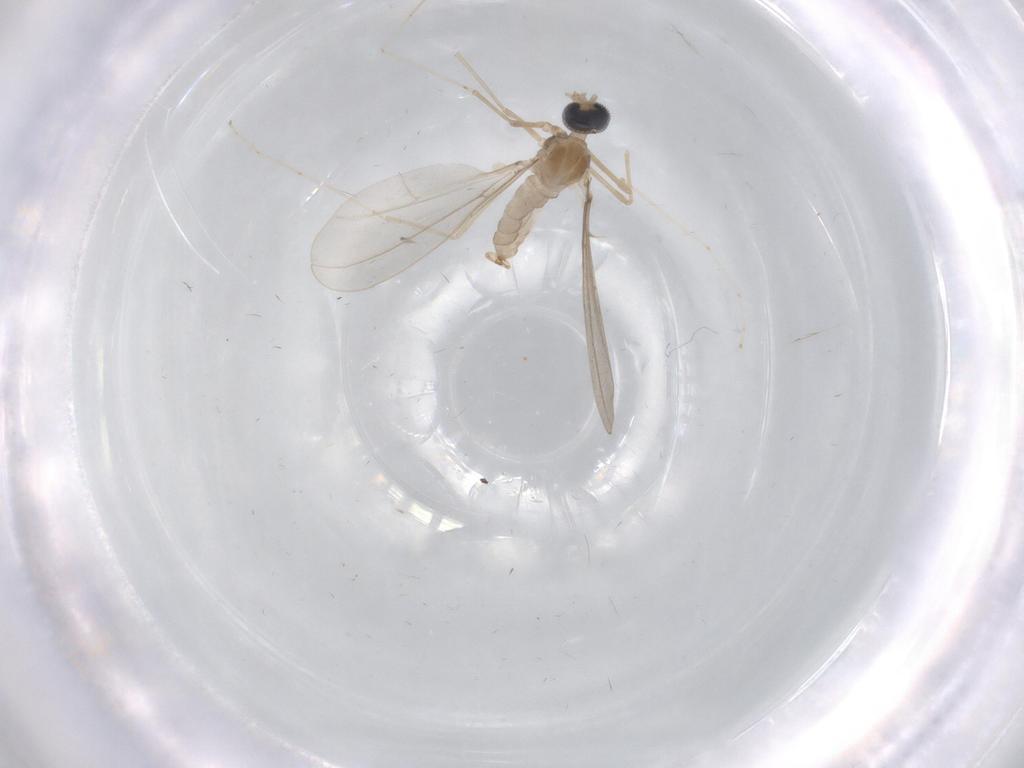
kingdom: Animalia
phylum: Arthropoda
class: Insecta
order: Diptera
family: Cecidomyiidae
